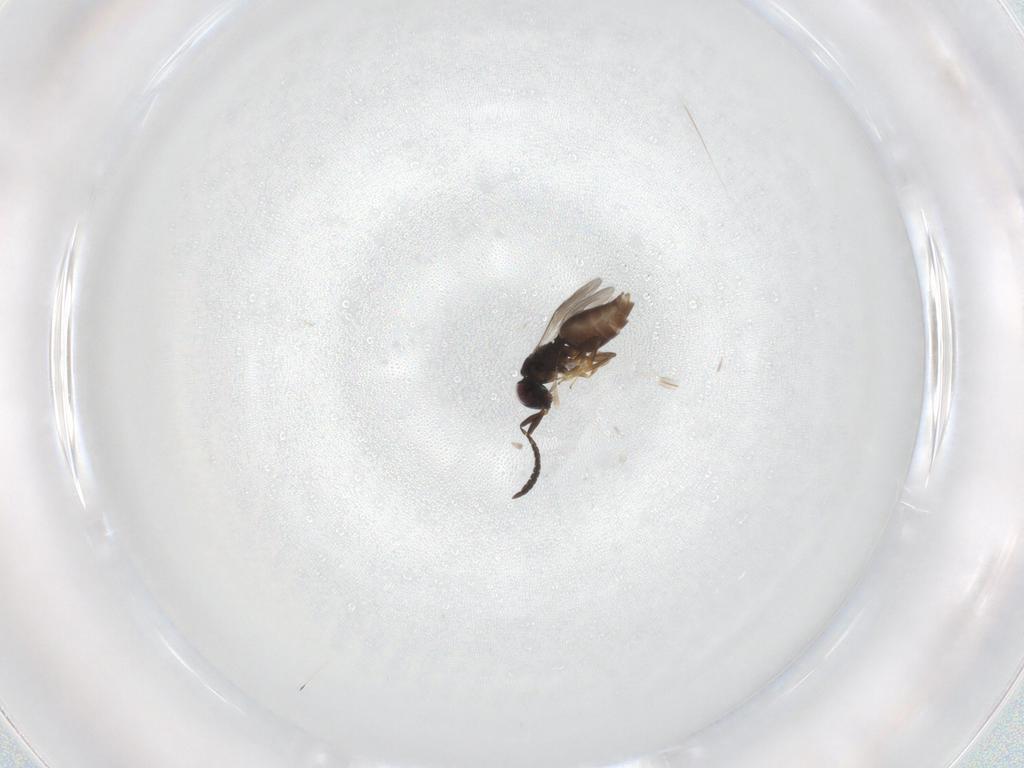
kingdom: Animalia
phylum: Arthropoda
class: Insecta
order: Hymenoptera
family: Megaspilidae
